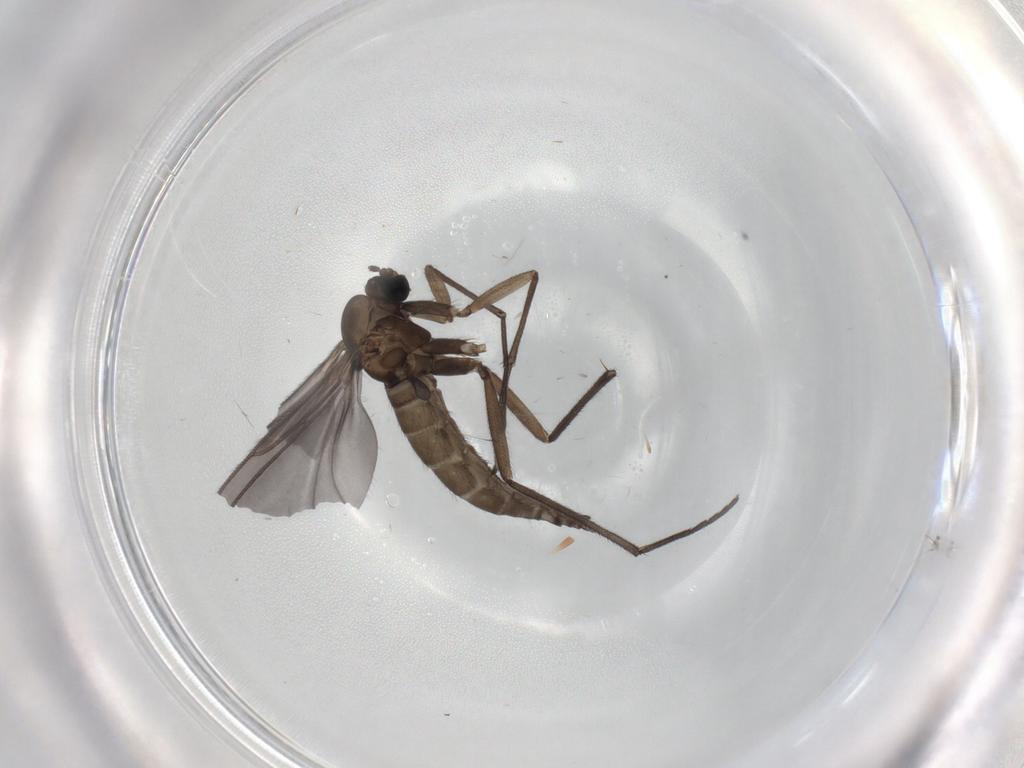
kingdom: Animalia
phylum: Arthropoda
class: Insecta
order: Diptera
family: Sciaridae
